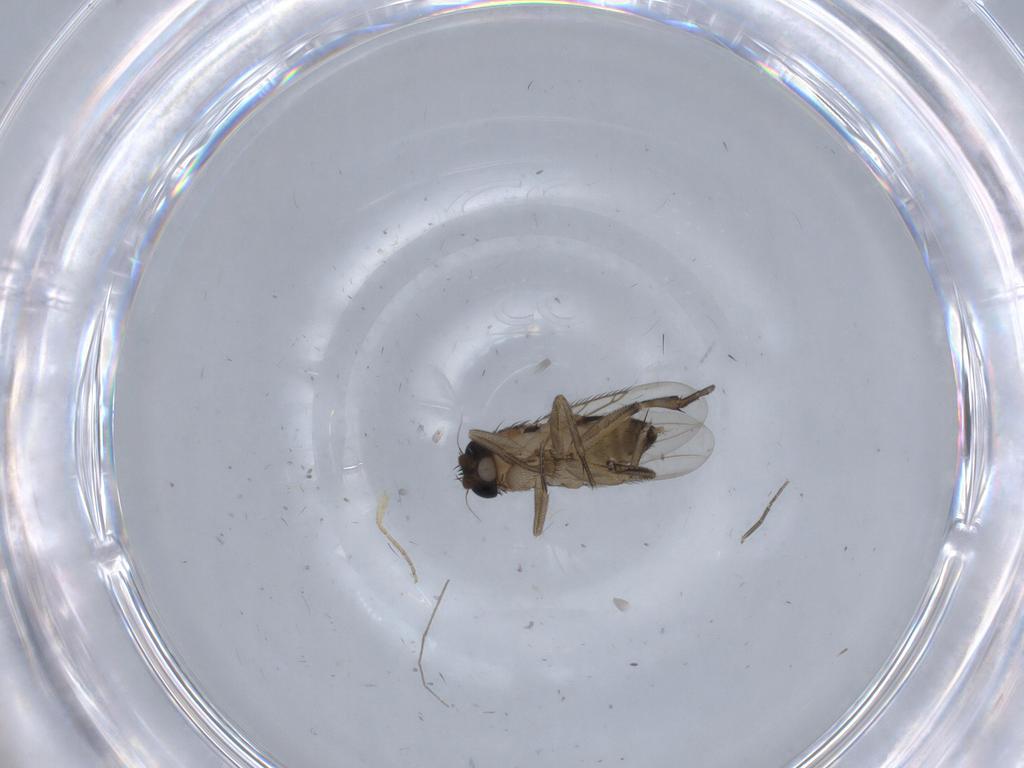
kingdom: Animalia
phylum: Arthropoda
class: Insecta
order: Diptera
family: Phoridae
